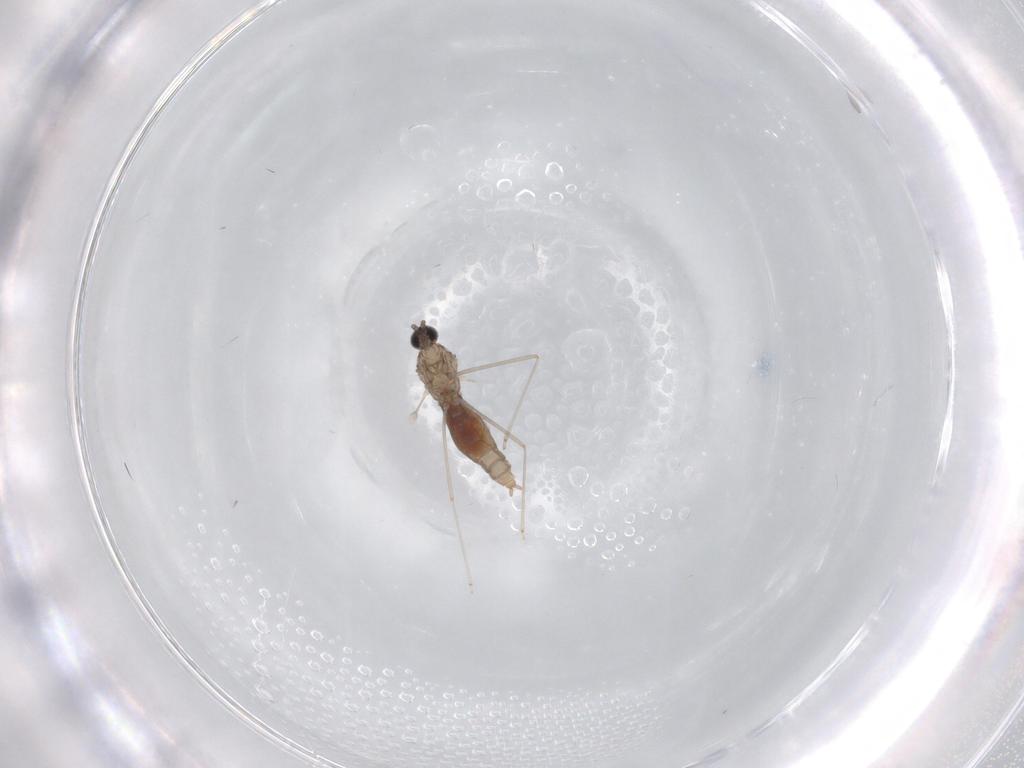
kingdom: Animalia
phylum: Arthropoda
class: Insecta
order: Diptera
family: Cecidomyiidae
